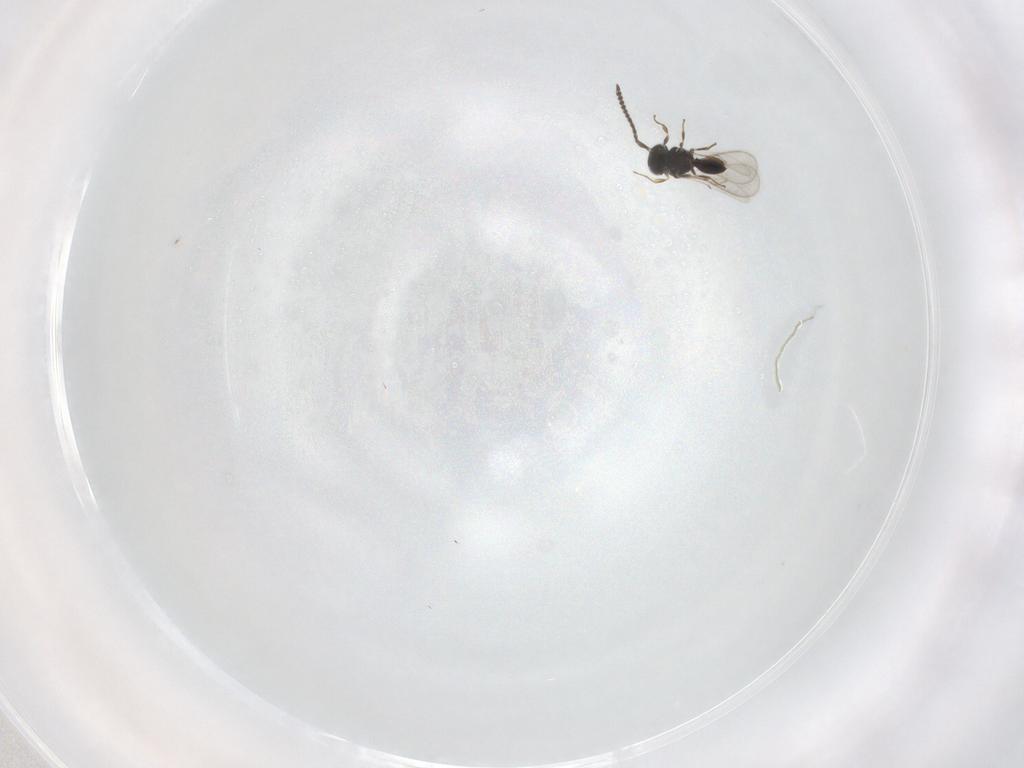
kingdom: Animalia
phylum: Arthropoda
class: Insecta
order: Hymenoptera
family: Scelionidae
